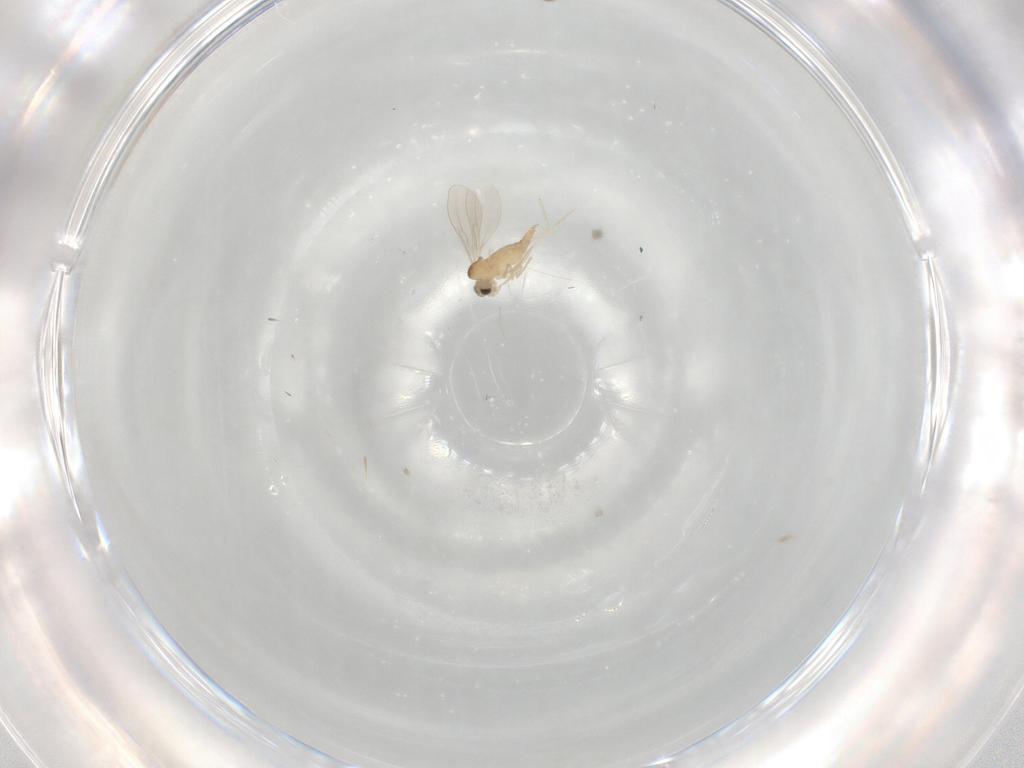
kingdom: Animalia
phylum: Arthropoda
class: Insecta
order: Diptera
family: Cecidomyiidae
